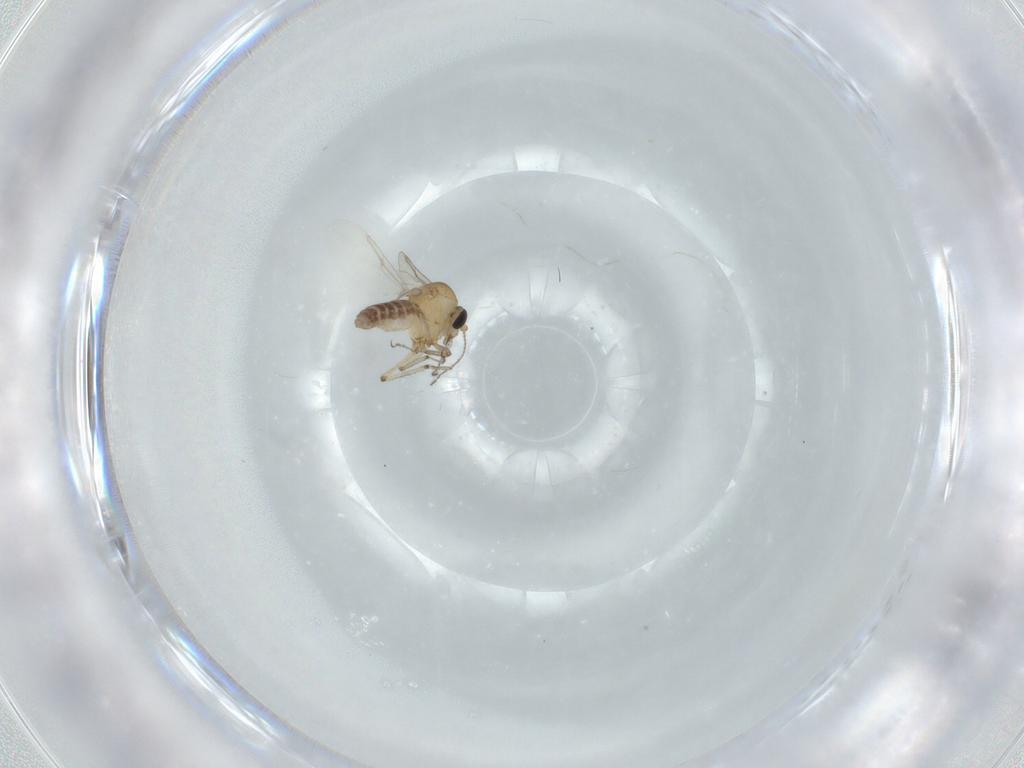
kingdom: Animalia
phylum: Arthropoda
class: Insecta
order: Diptera
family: Ceratopogonidae
